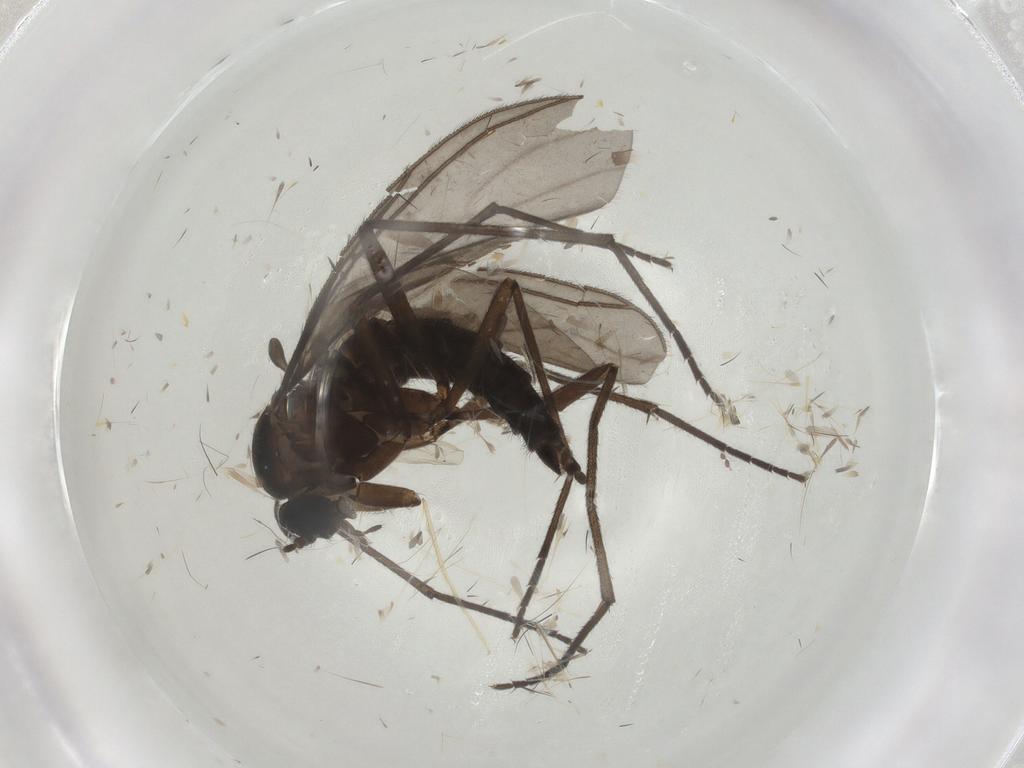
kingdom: Animalia
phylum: Arthropoda
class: Insecta
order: Diptera
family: Sciaridae
